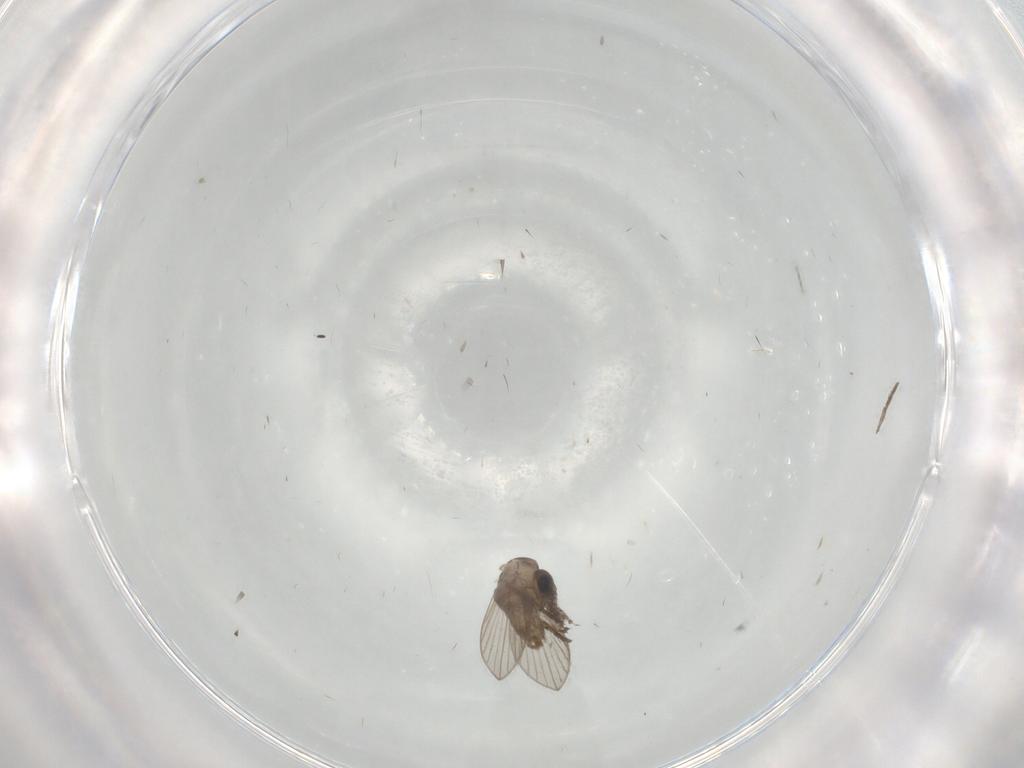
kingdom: Animalia
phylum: Arthropoda
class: Insecta
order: Diptera
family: Psychodidae
